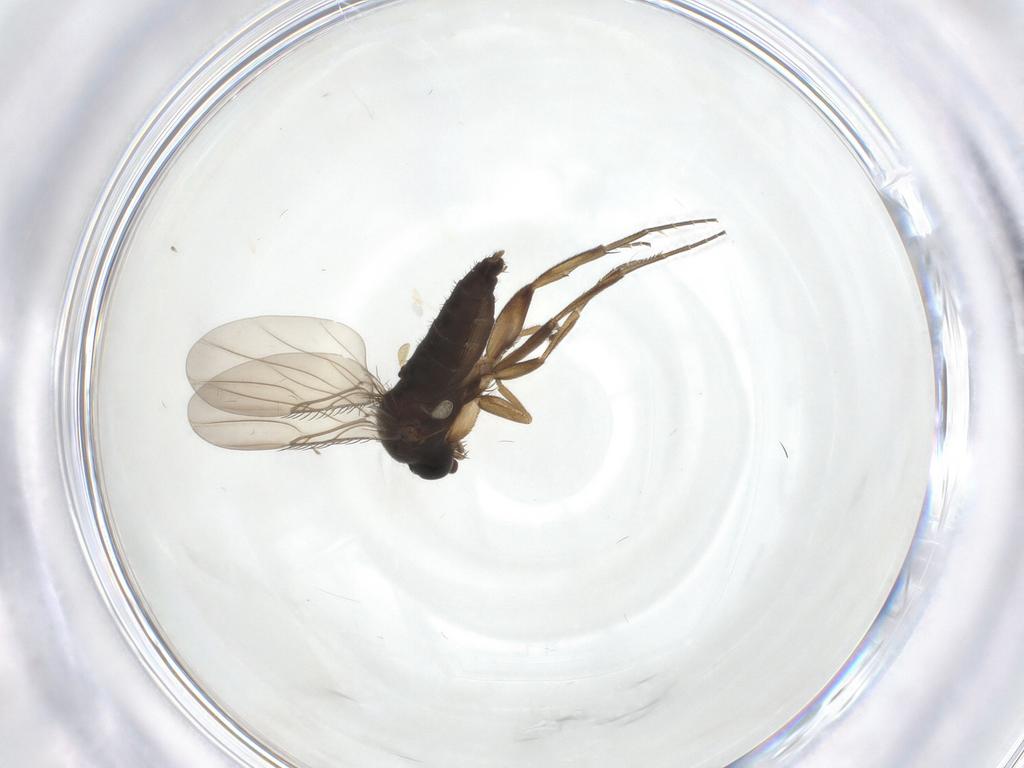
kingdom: Animalia
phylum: Arthropoda
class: Insecta
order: Diptera
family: Phoridae
